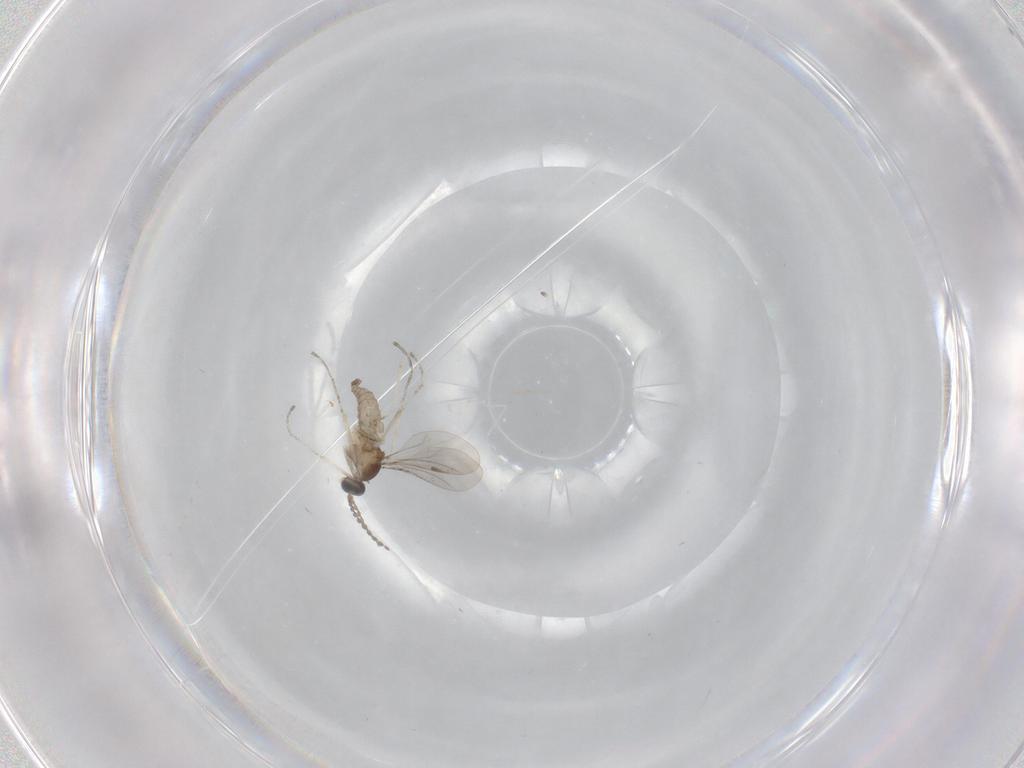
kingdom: Animalia
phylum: Arthropoda
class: Insecta
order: Diptera
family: Cecidomyiidae
